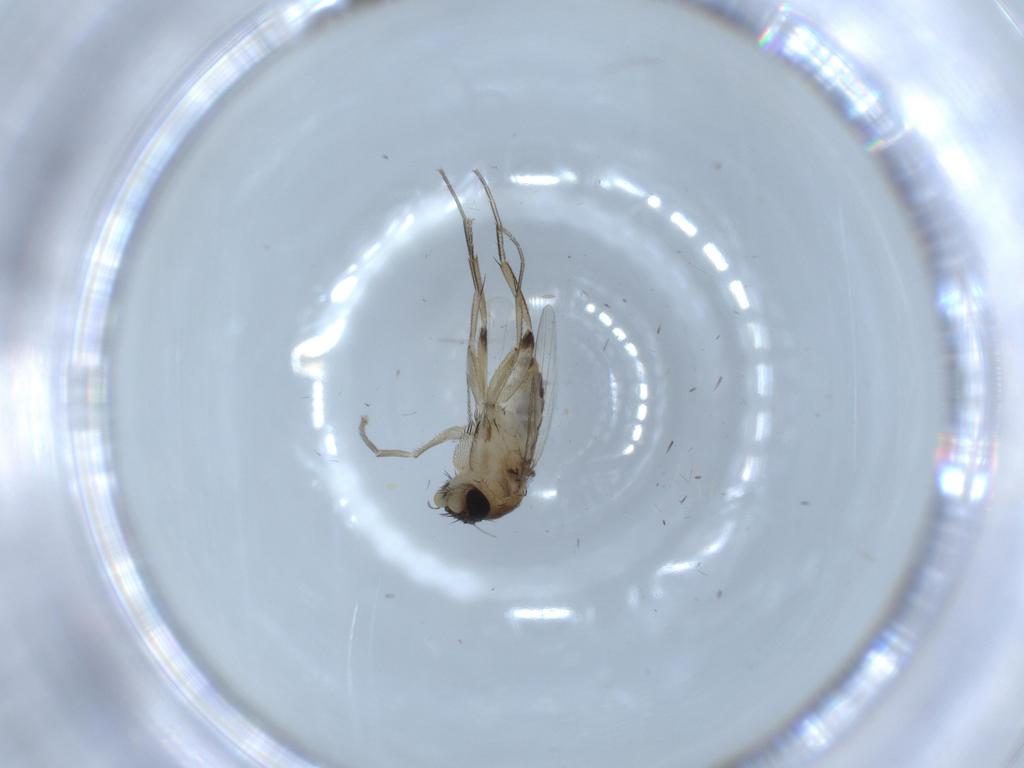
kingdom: Animalia
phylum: Arthropoda
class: Insecta
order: Diptera
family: Phoridae
